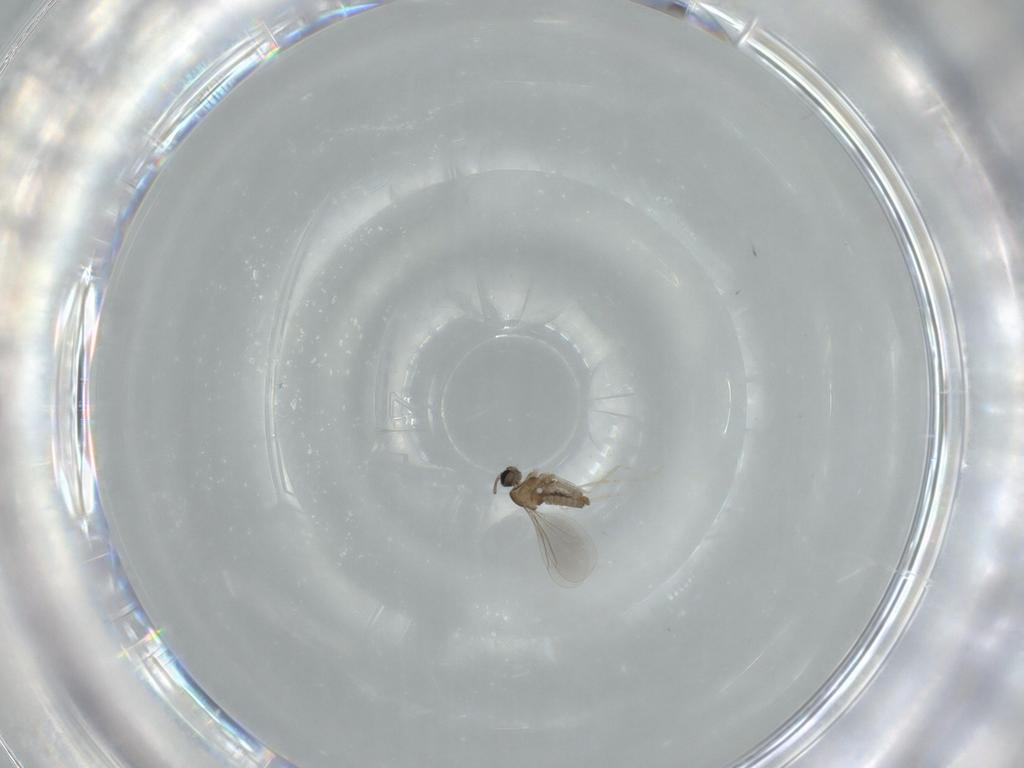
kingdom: Animalia
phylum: Arthropoda
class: Insecta
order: Diptera
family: Cecidomyiidae
